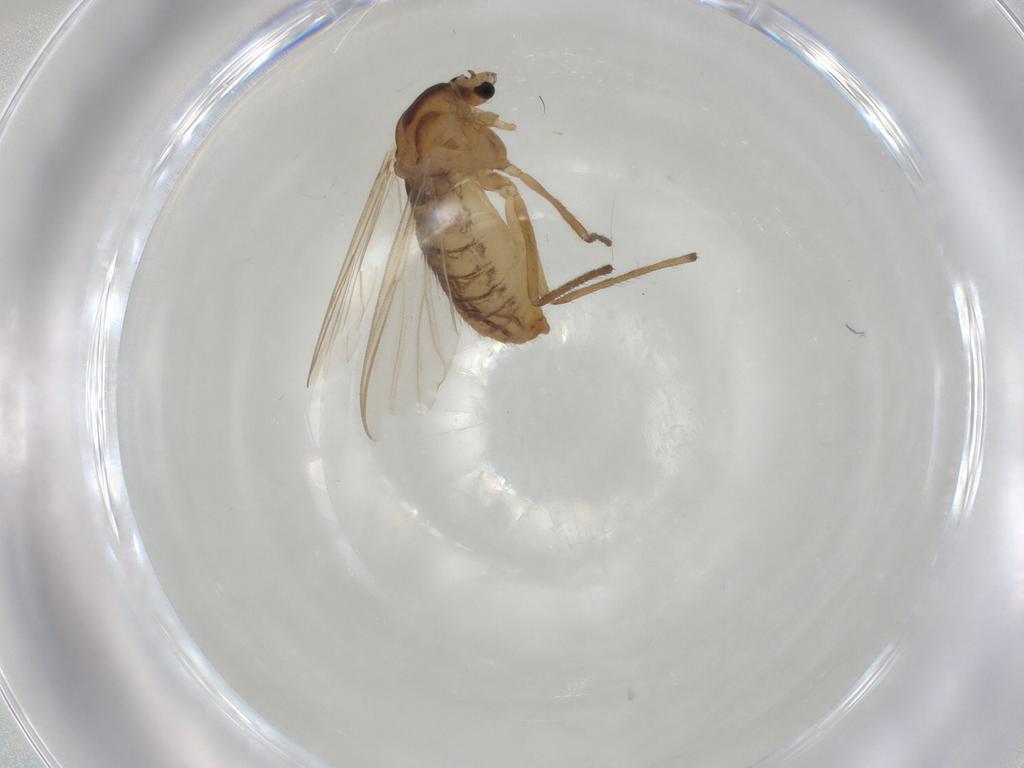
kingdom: Animalia
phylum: Arthropoda
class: Insecta
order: Diptera
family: Chironomidae
